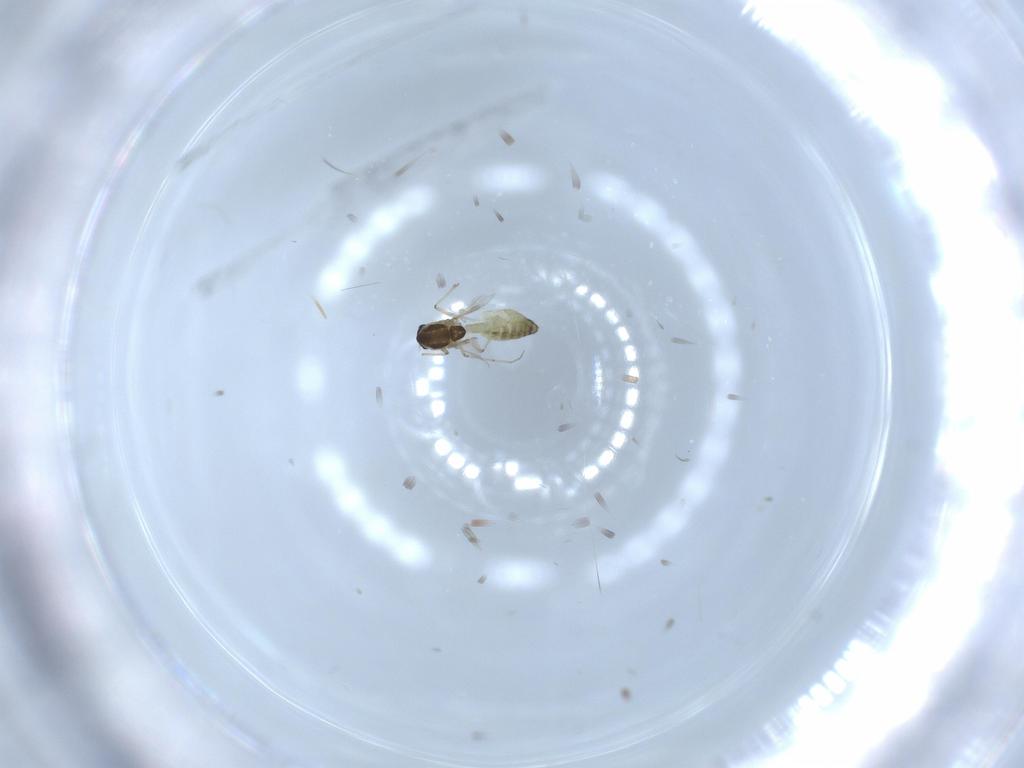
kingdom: Animalia
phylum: Arthropoda
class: Insecta
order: Diptera
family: Chironomidae
